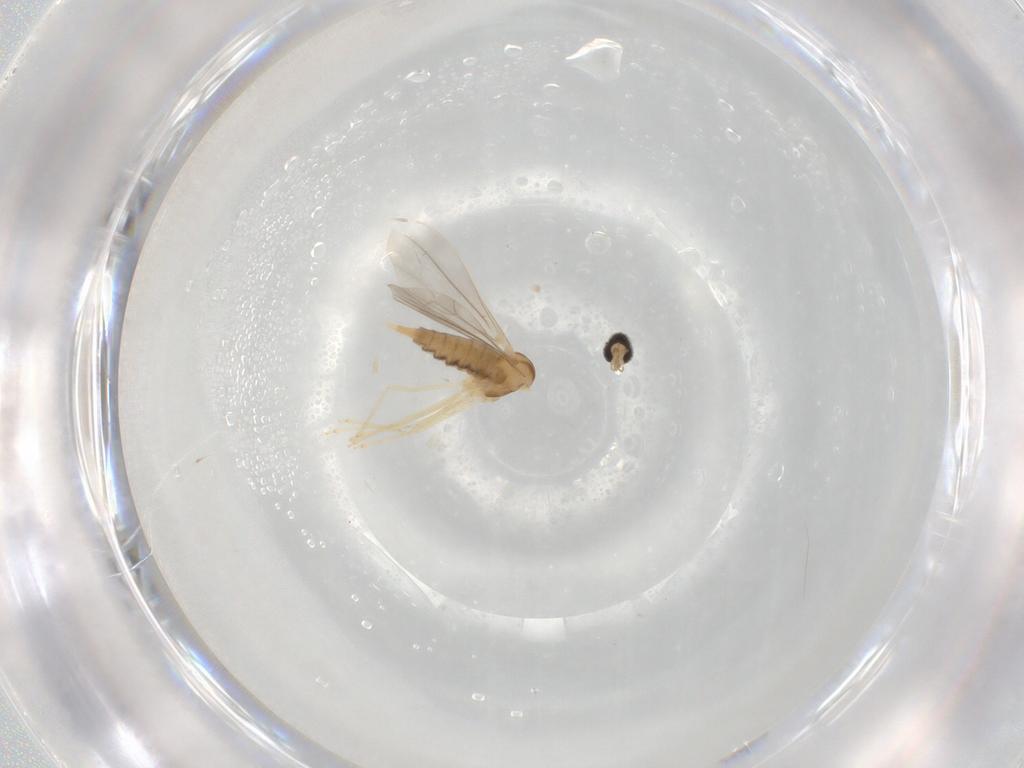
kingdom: Animalia
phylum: Arthropoda
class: Insecta
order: Diptera
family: Cecidomyiidae
